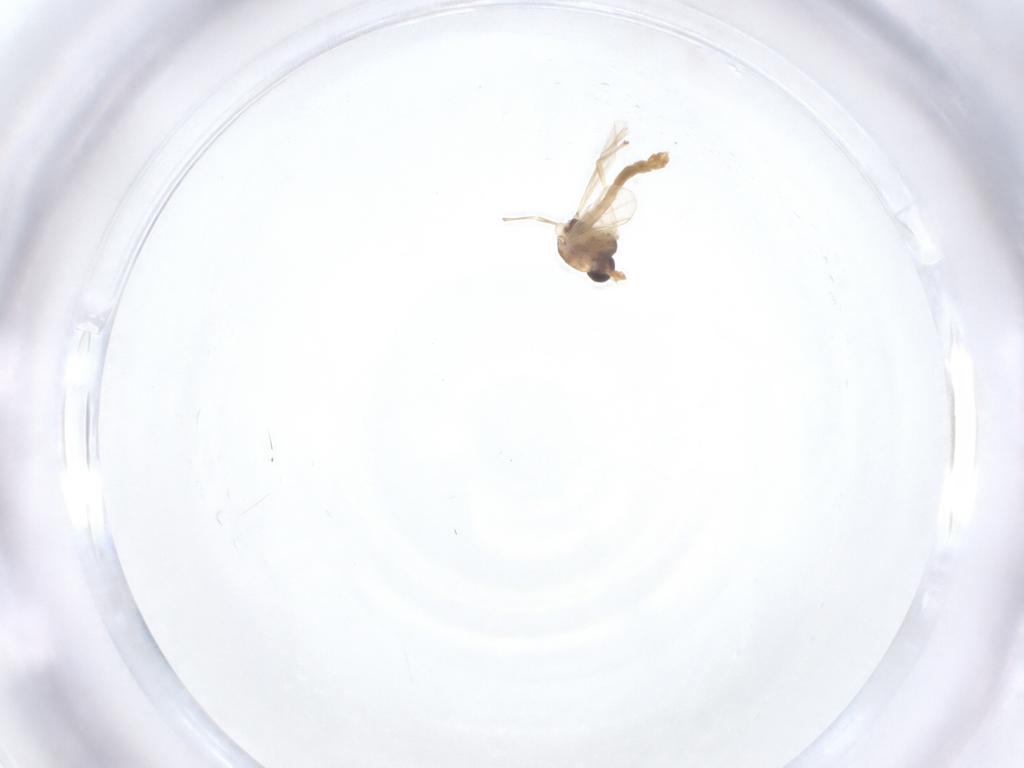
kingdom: Animalia
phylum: Arthropoda
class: Insecta
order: Diptera
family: Chironomidae
